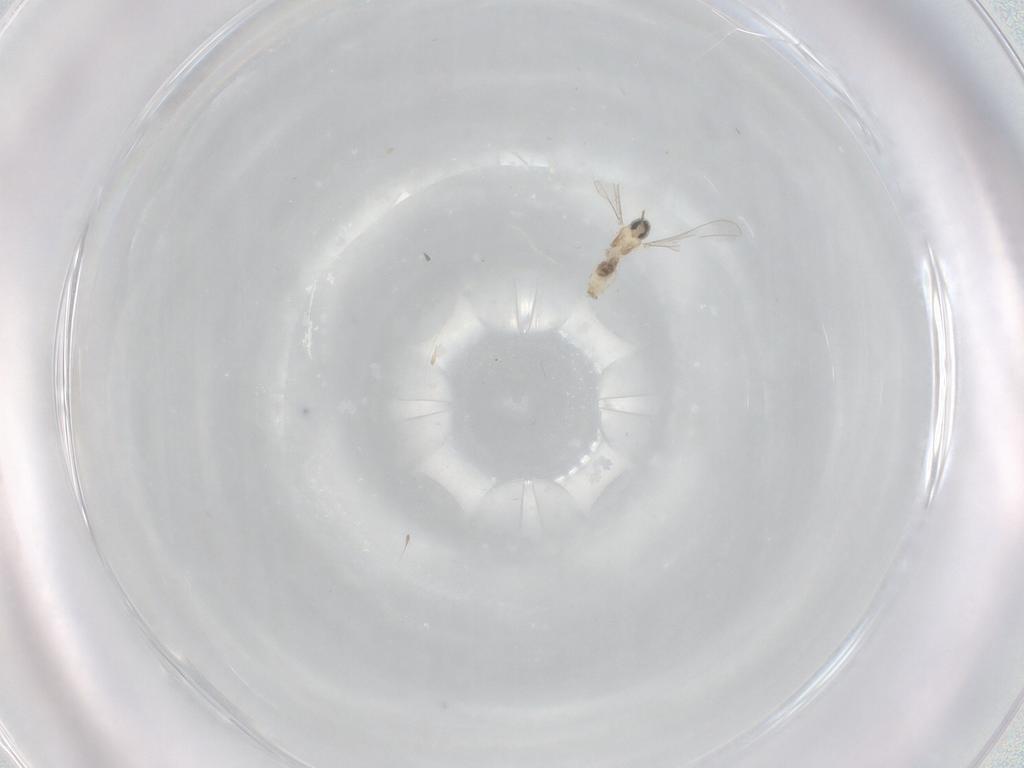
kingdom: Animalia
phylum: Arthropoda
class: Insecta
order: Diptera
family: Cecidomyiidae
